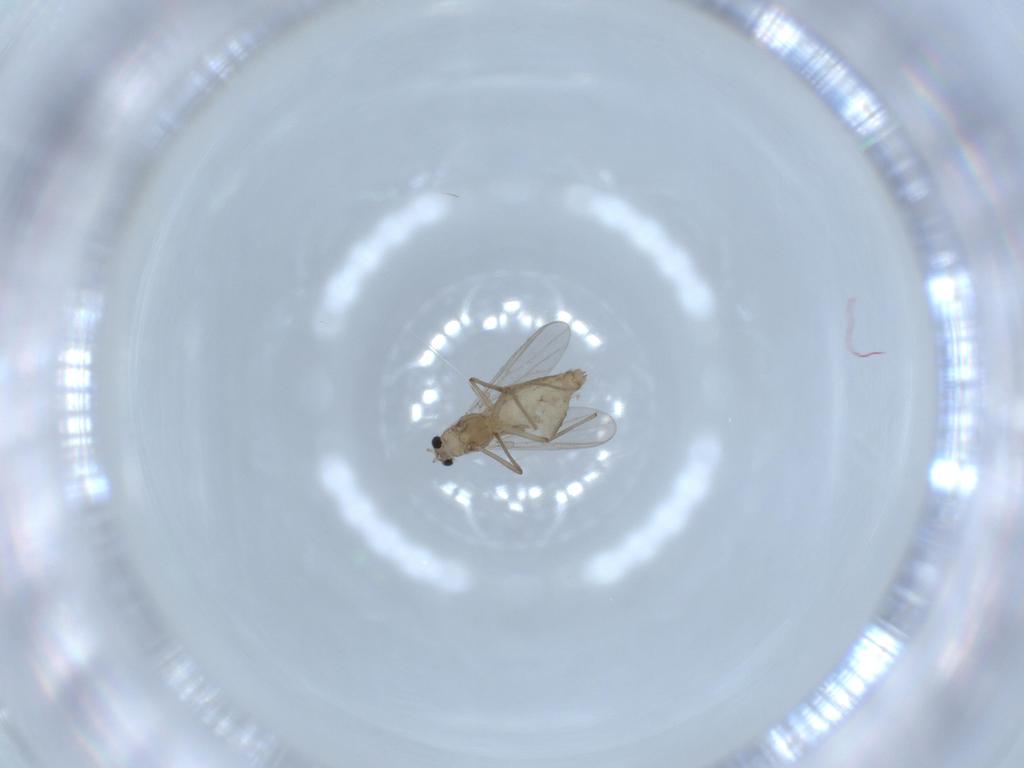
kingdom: Animalia
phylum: Arthropoda
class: Insecta
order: Diptera
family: Chironomidae
